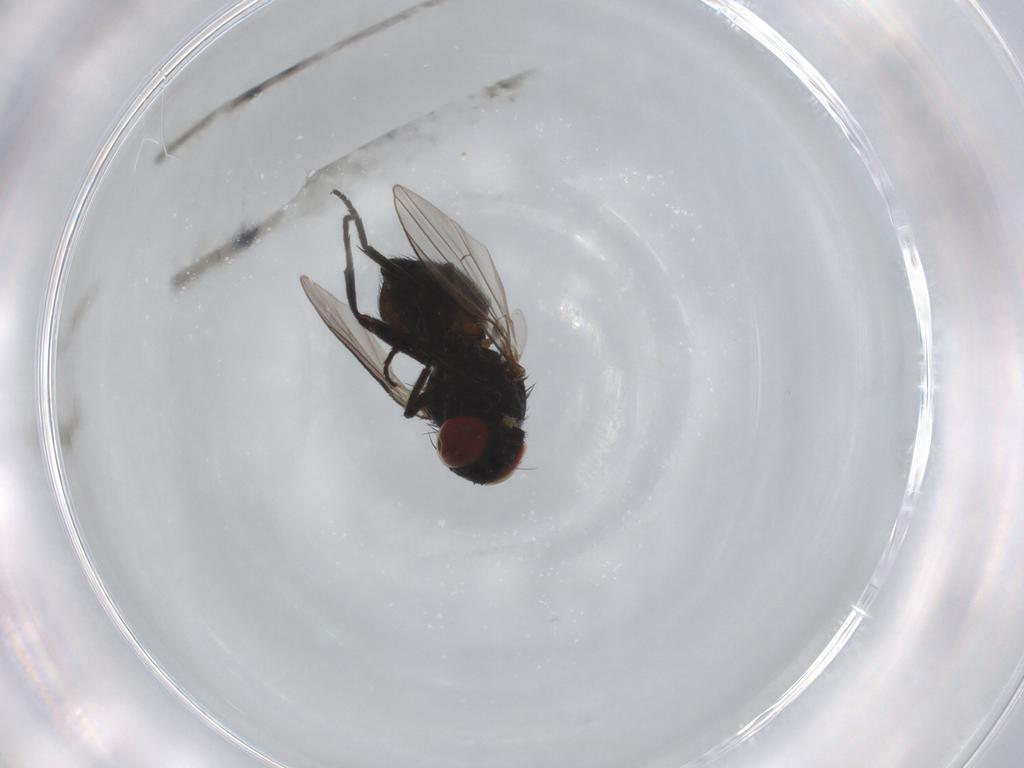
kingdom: Animalia
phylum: Arthropoda
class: Insecta
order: Diptera
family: Agromyzidae
